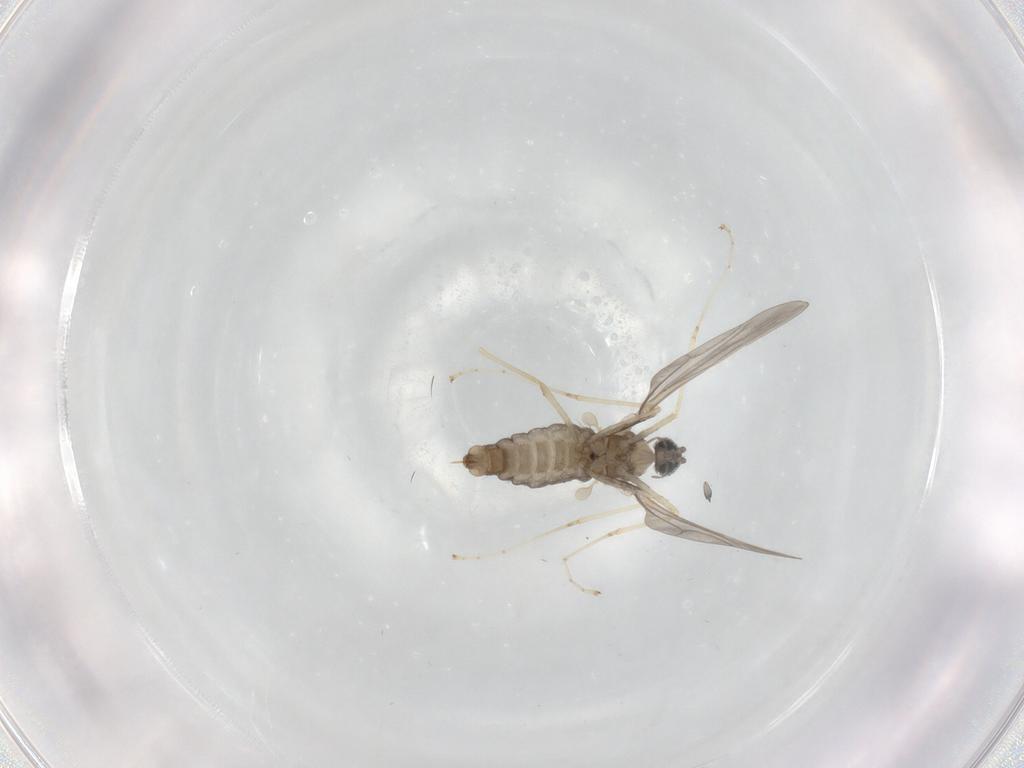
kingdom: Animalia
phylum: Arthropoda
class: Insecta
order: Diptera
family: Cecidomyiidae
